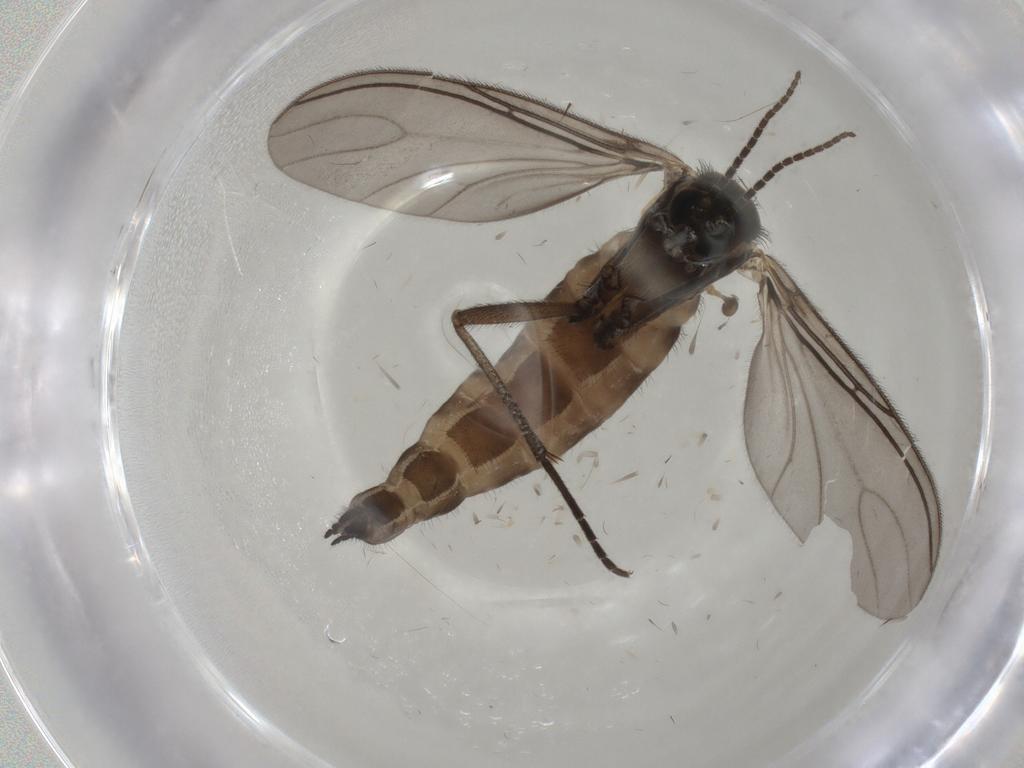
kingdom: Animalia
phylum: Arthropoda
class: Insecta
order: Diptera
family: Sciaridae
